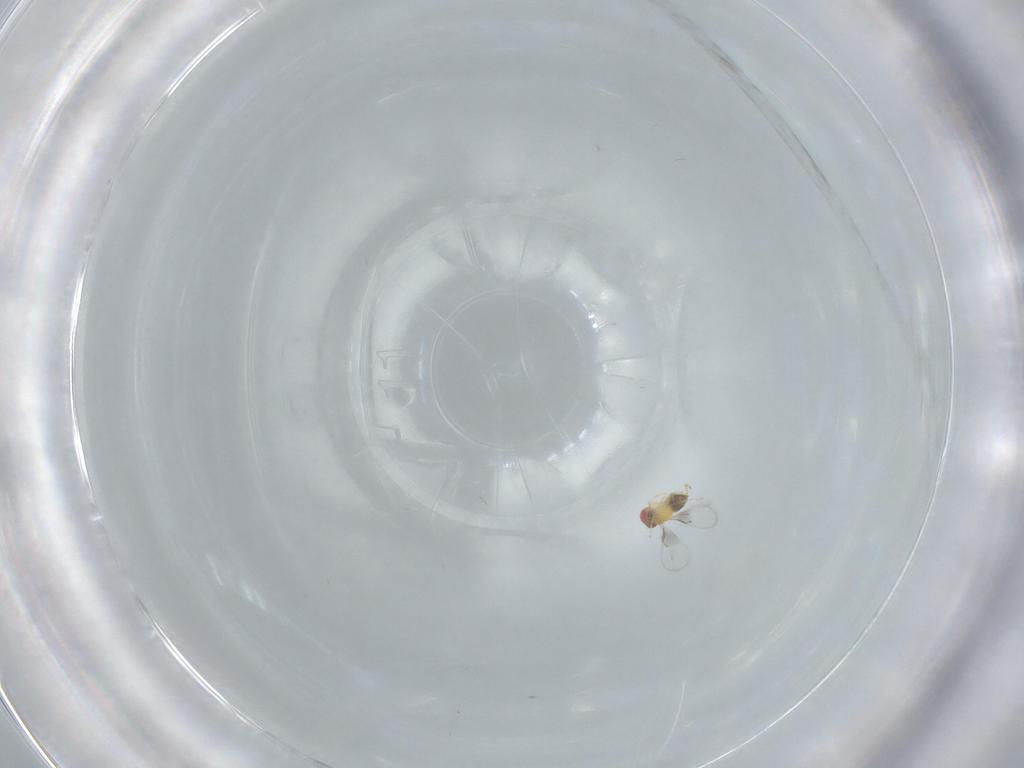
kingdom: Animalia
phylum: Arthropoda
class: Insecta
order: Hymenoptera
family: Trichogrammatidae
